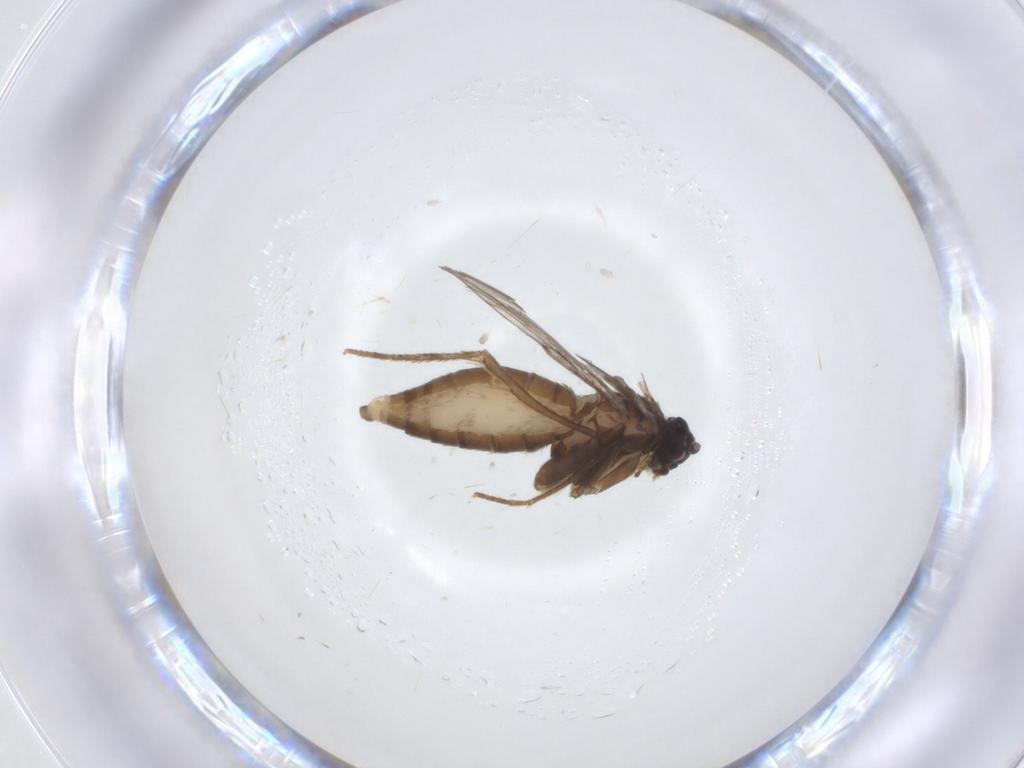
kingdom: Animalia
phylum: Arthropoda
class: Insecta
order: Lepidoptera
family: Micropterigidae
